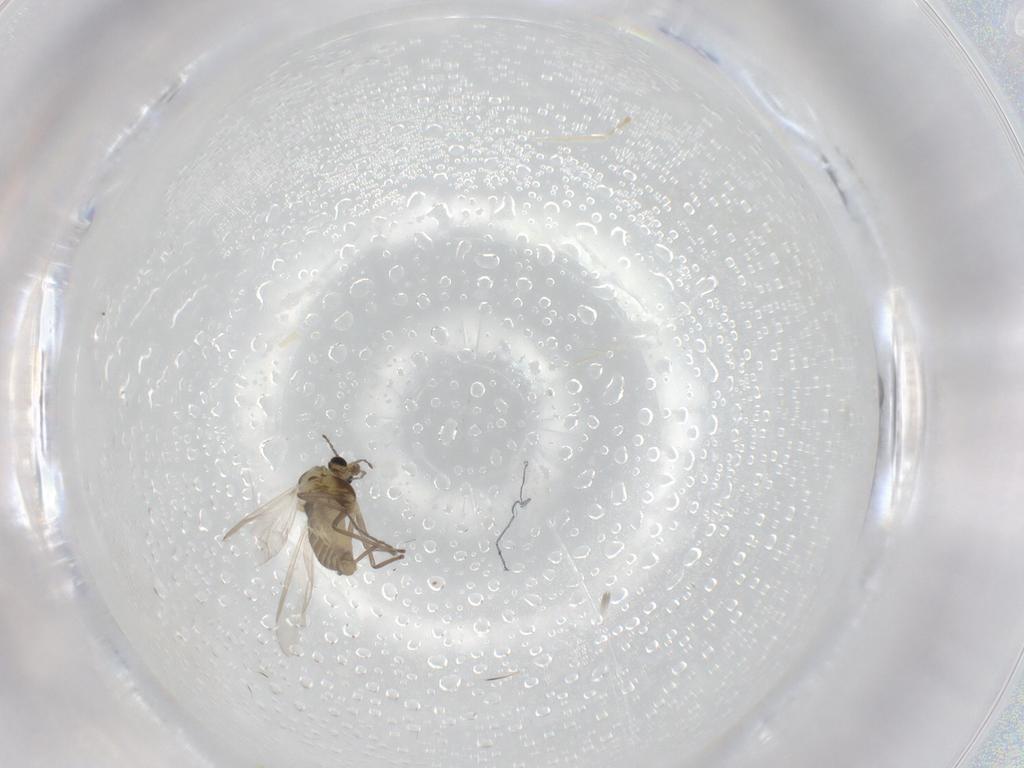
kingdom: Animalia
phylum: Arthropoda
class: Insecta
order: Diptera
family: Chironomidae
